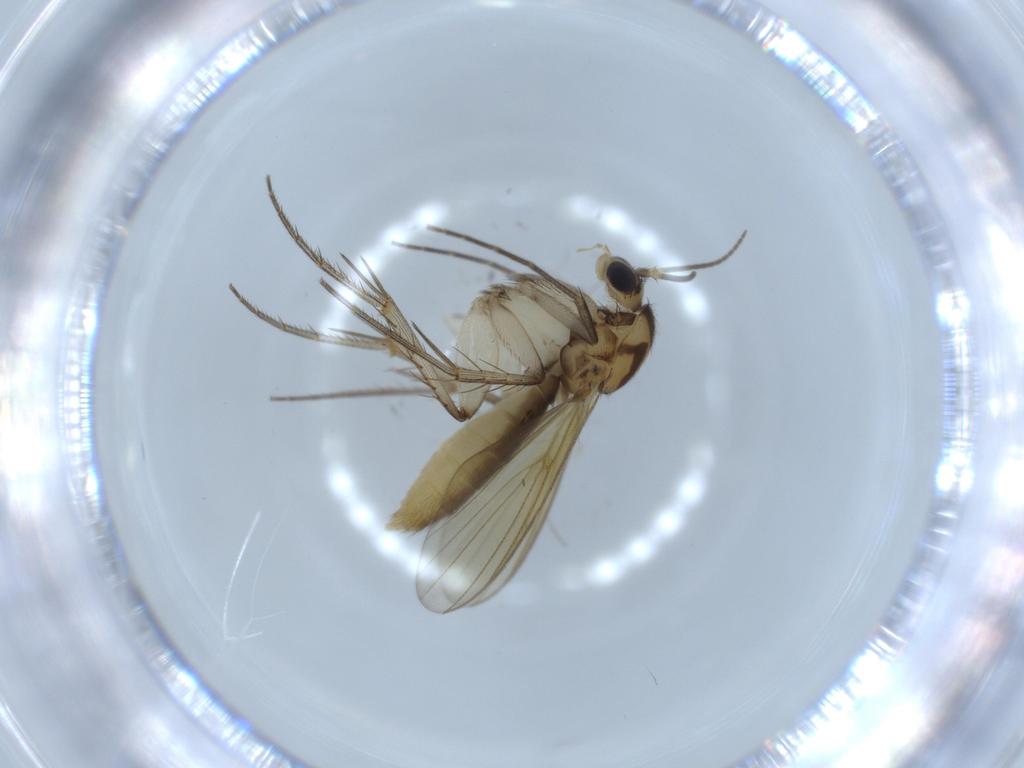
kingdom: Animalia
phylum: Arthropoda
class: Insecta
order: Diptera
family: Mycetophilidae
